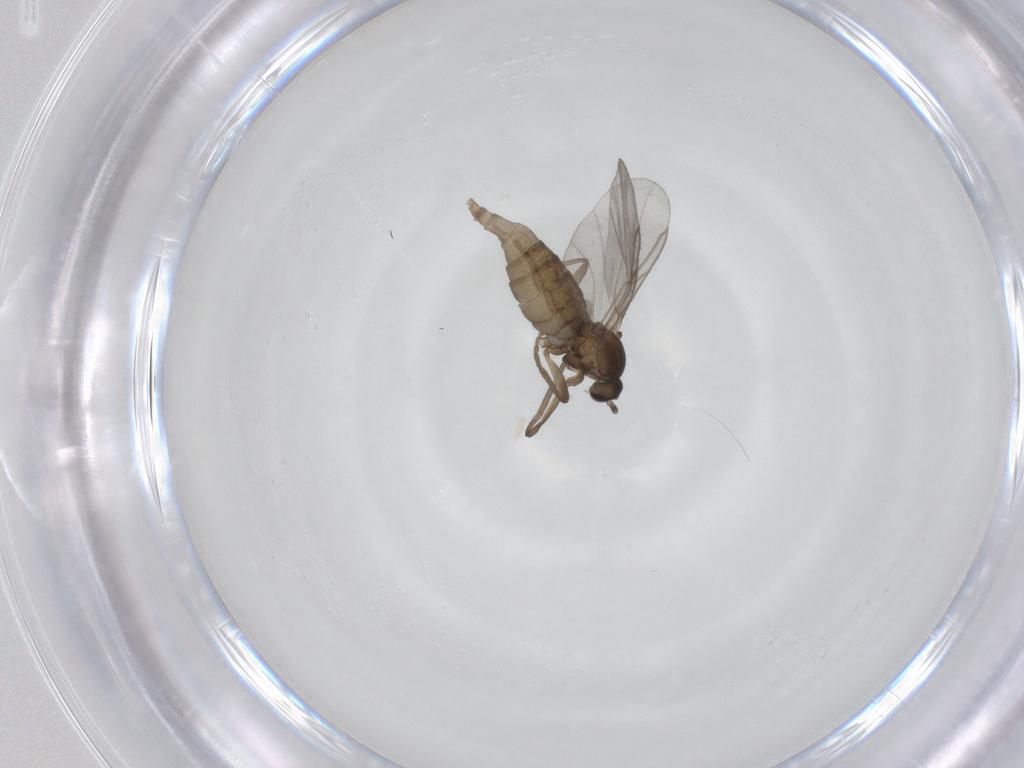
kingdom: Animalia
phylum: Arthropoda
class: Insecta
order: Diptera
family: Cecidomyiidae
